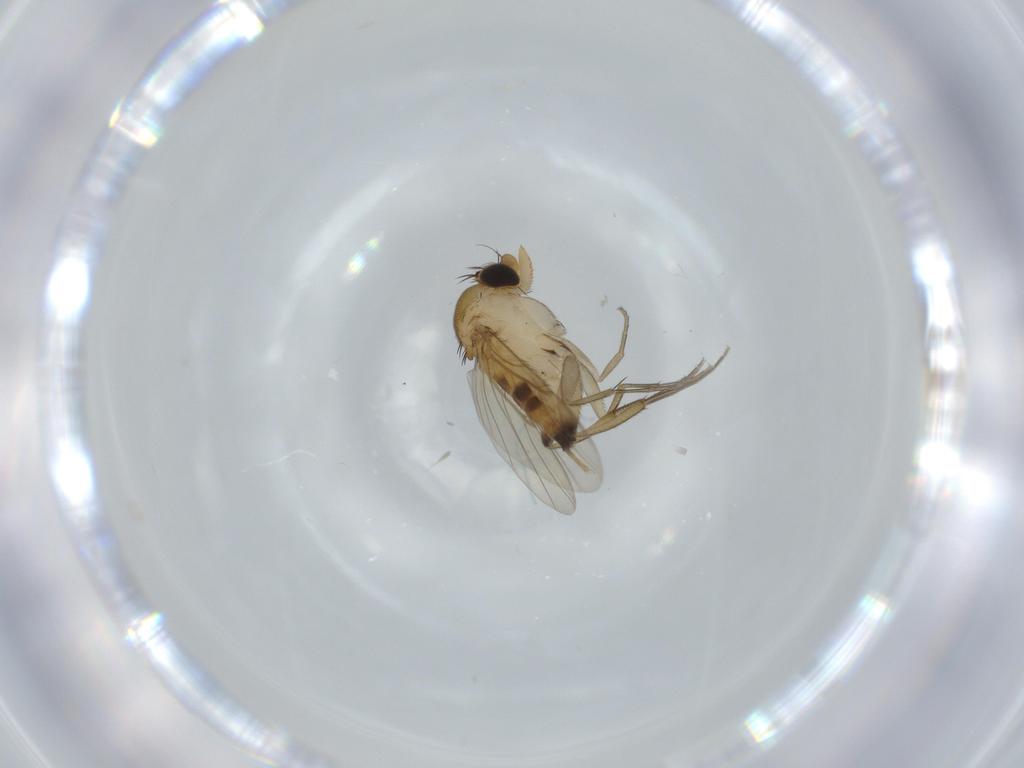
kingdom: Animalia
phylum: Arthropoda
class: Insecta
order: Diptera
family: Phoridae
